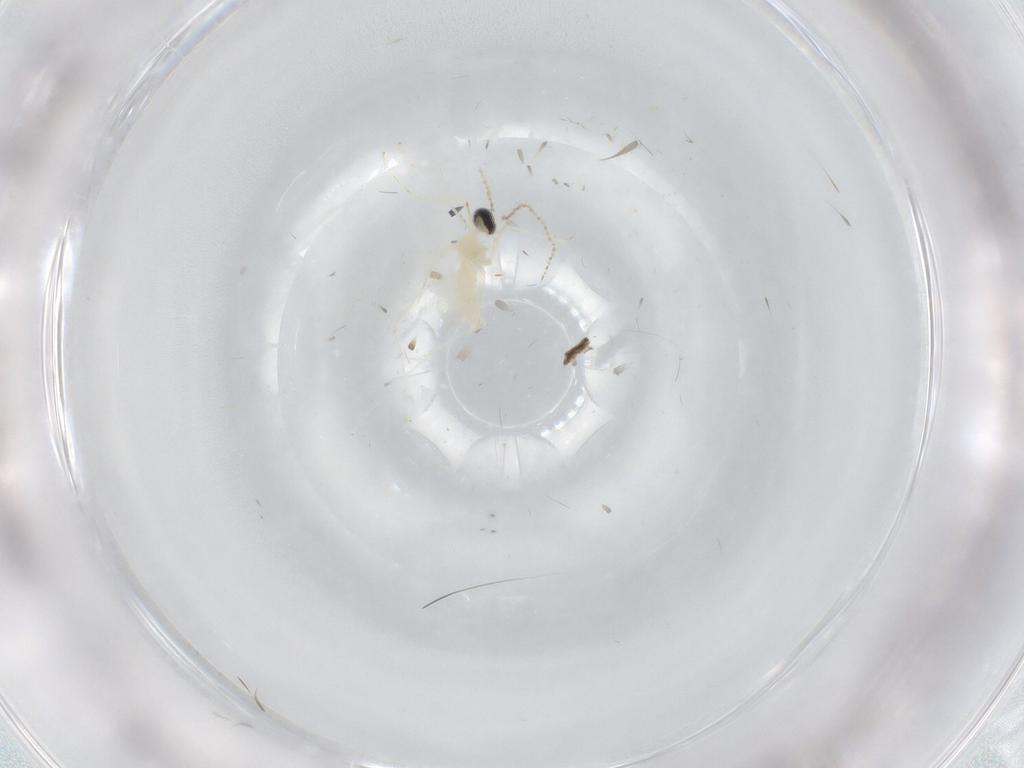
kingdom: Animalia
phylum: Arthropoda
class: Insecta
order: Diptera
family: Cecidomyiidae
